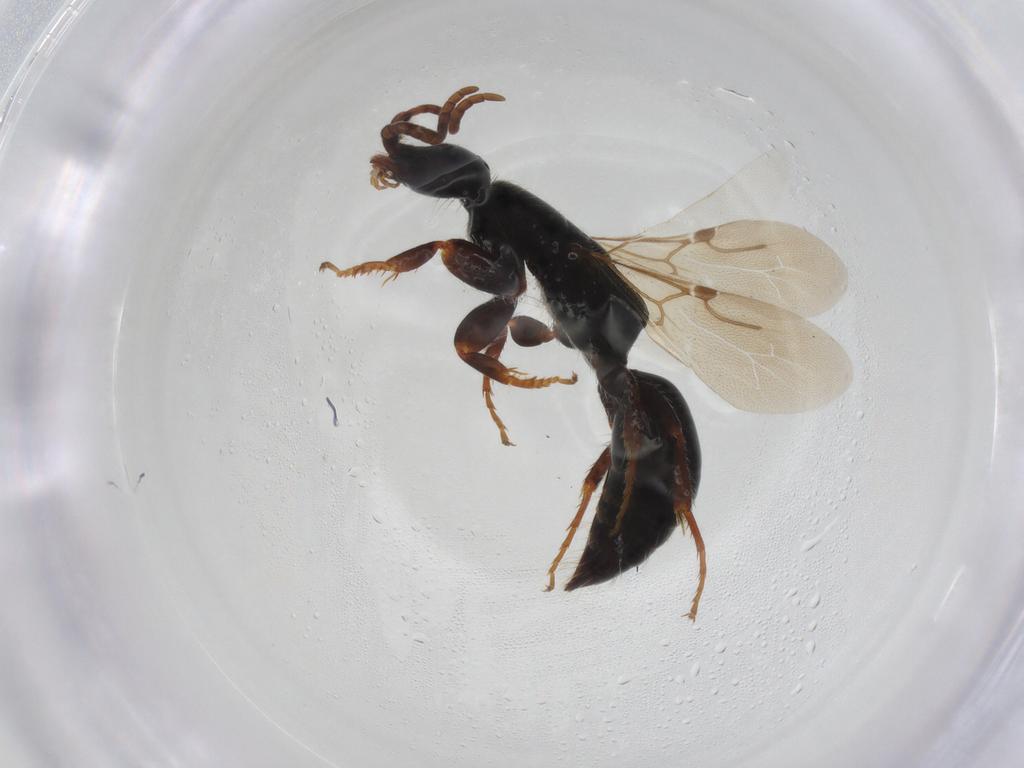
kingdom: Animalia
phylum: Arthropoda
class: Insecta
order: Hymenoptera
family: Bethylidae
